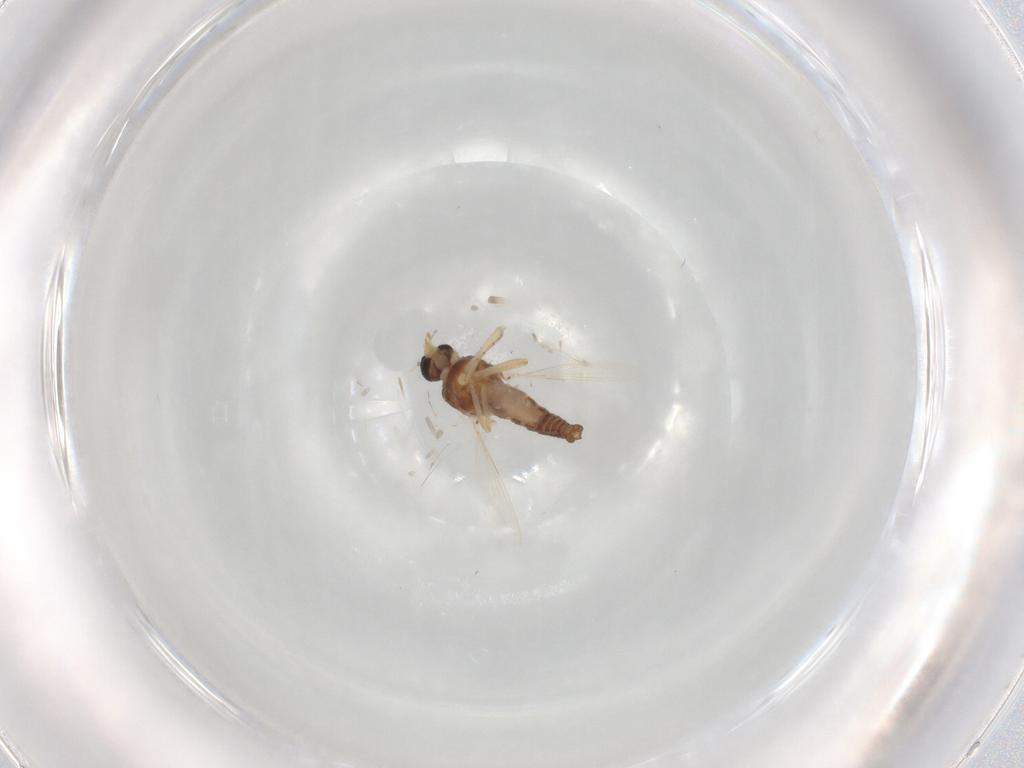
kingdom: Animalia
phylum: Arthropoda
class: Insecta
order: Diptera
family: Ceratopogonidae
